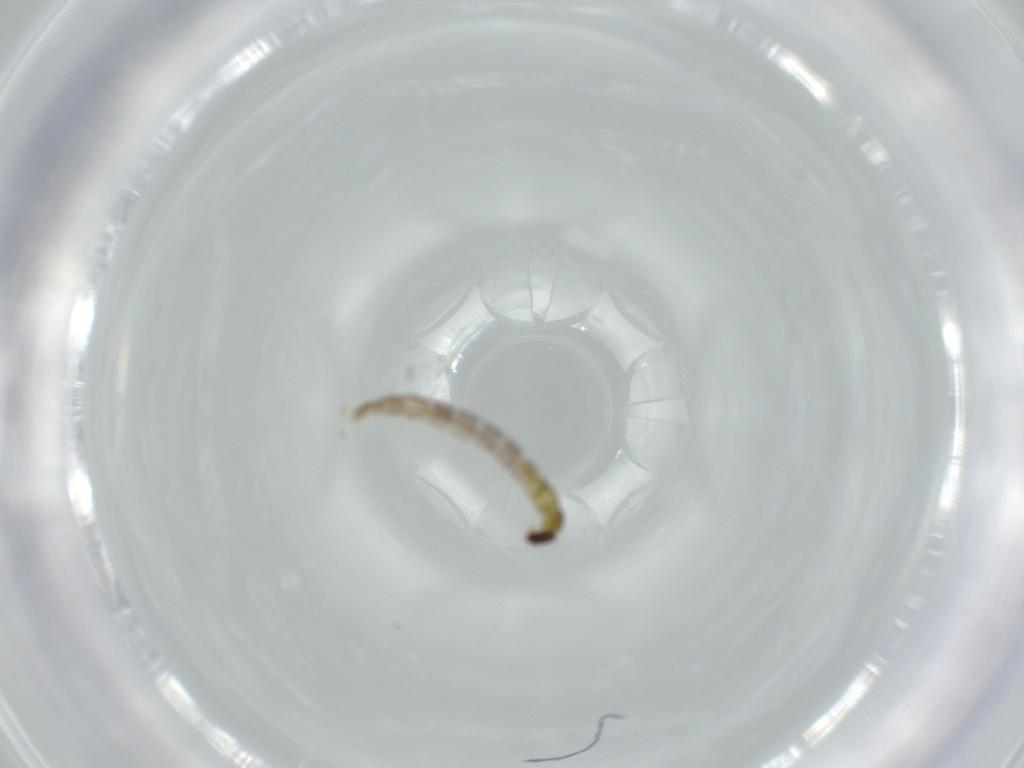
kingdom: Animalia
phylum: Arthropoda
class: Insecta
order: Diptera
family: Chironomidae
